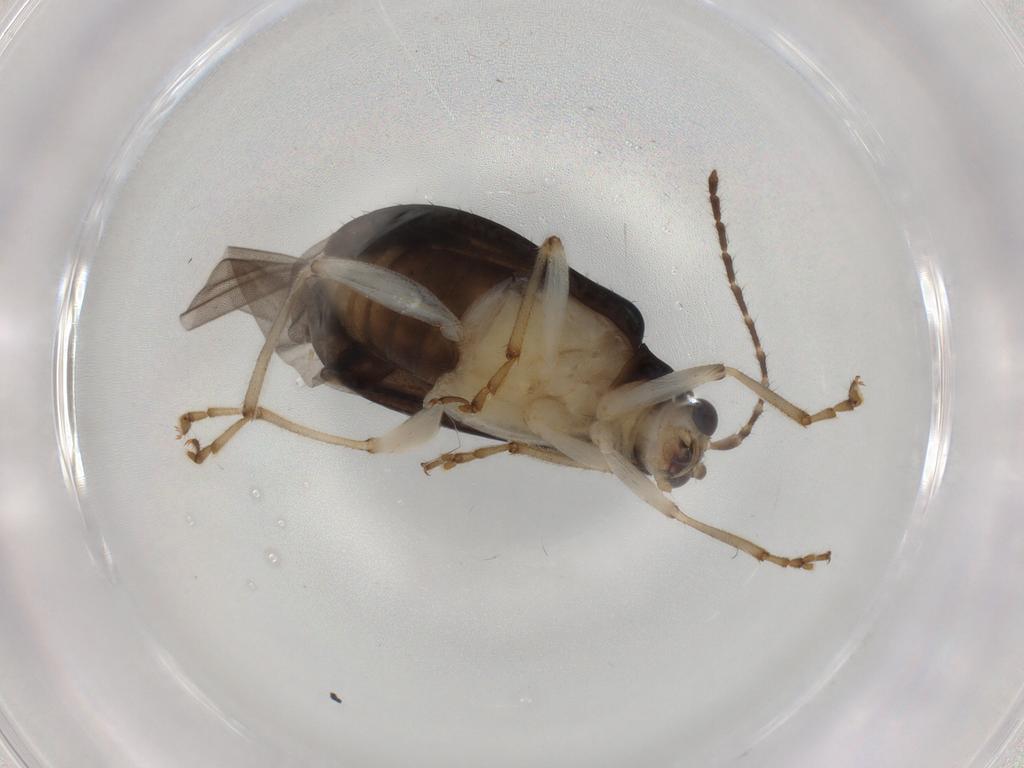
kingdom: Animalia
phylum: Arthropoda
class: Insecta
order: Coleoptera
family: Chrysomelidae
